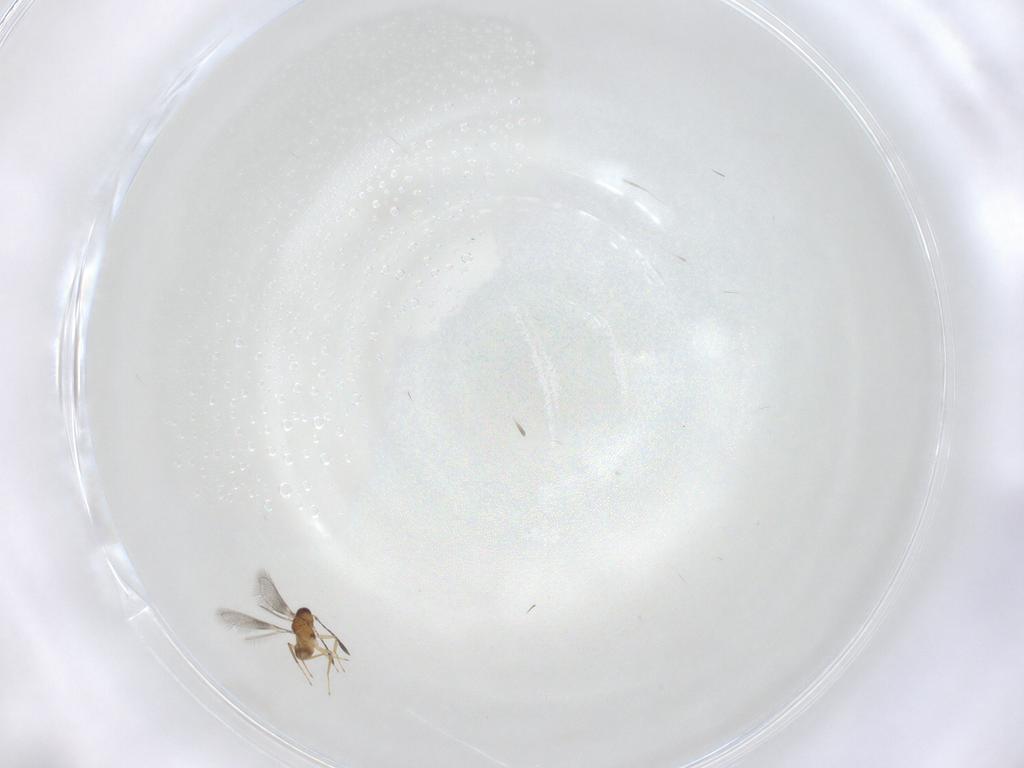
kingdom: Animalia
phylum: Arthropoda
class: Insecta
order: Hymenoptera
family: Mymaridae
